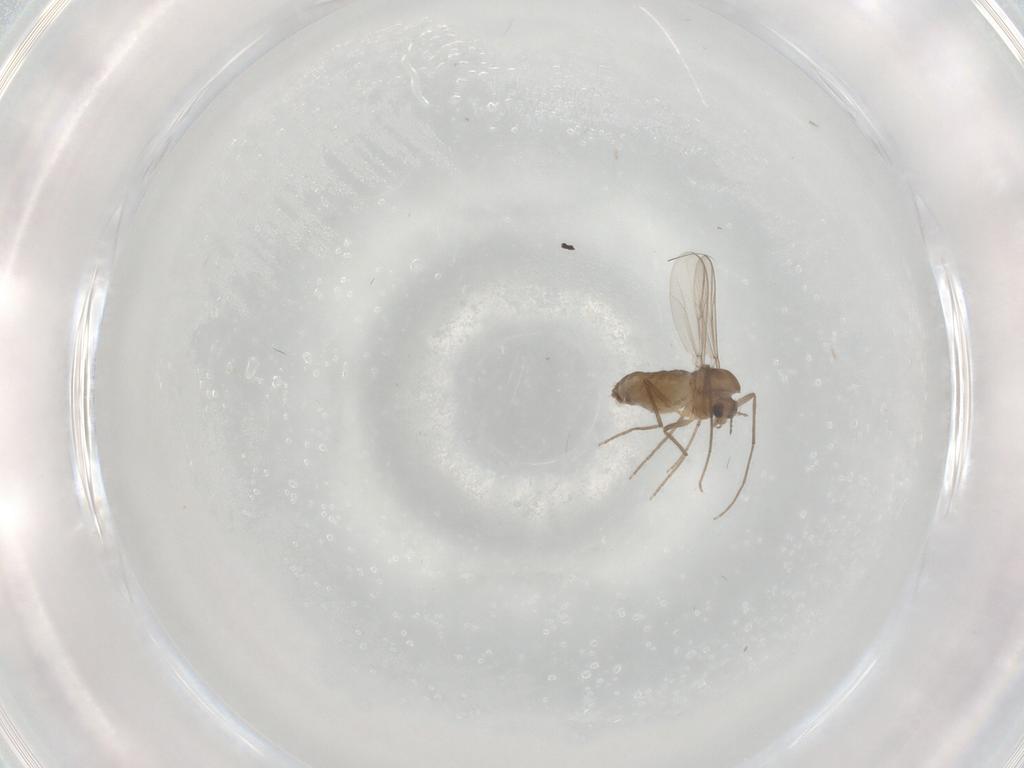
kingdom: Animalia
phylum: Arthropoda
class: Insecta
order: Diptera
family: Chironomidae
